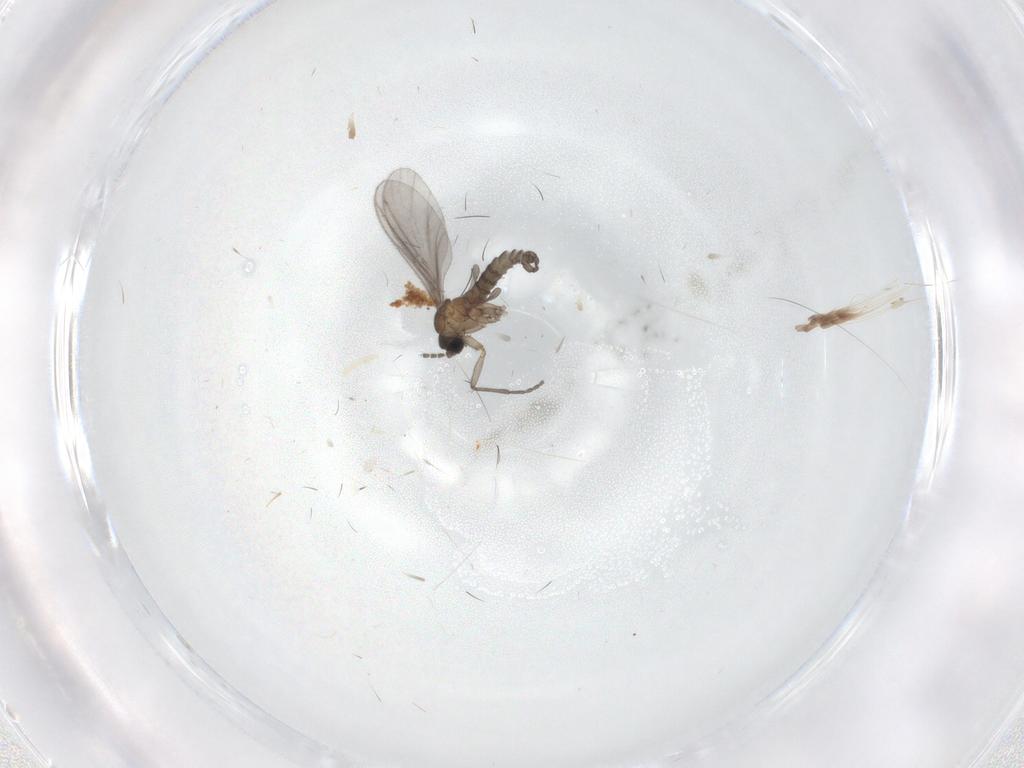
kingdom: Animalia
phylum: Arthropoda
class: Insecta
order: Diptera
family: Sciaridae
